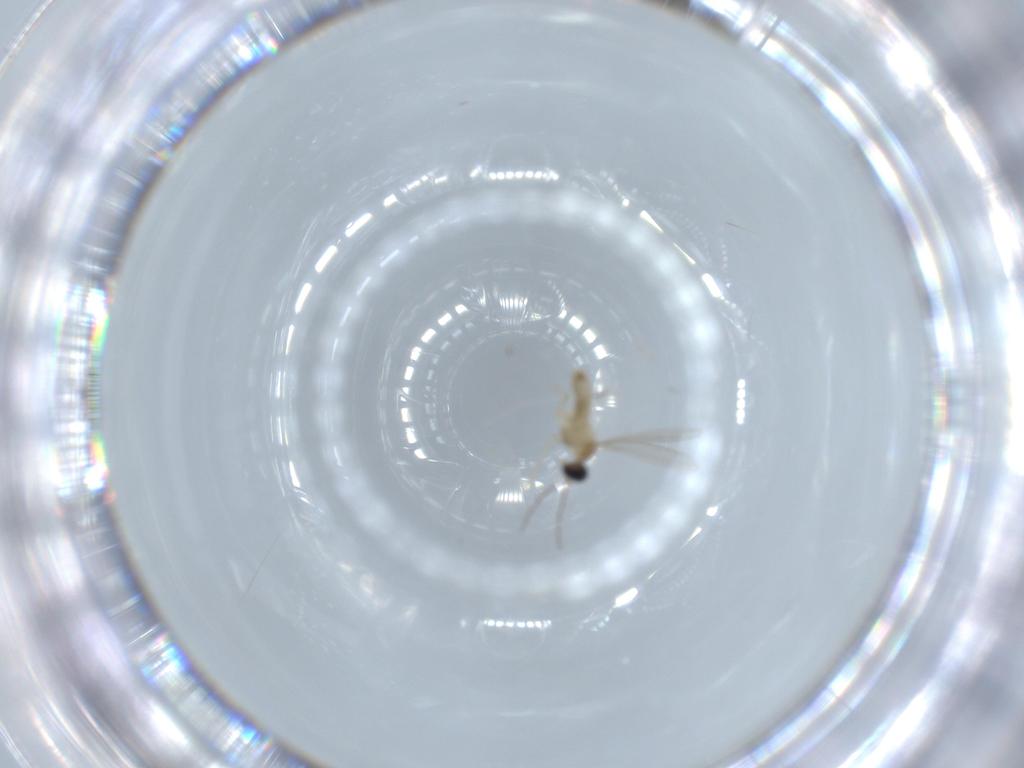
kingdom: Animalia
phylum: Arthropoda
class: Insecta
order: Diptera
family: Cecidomyiidae
